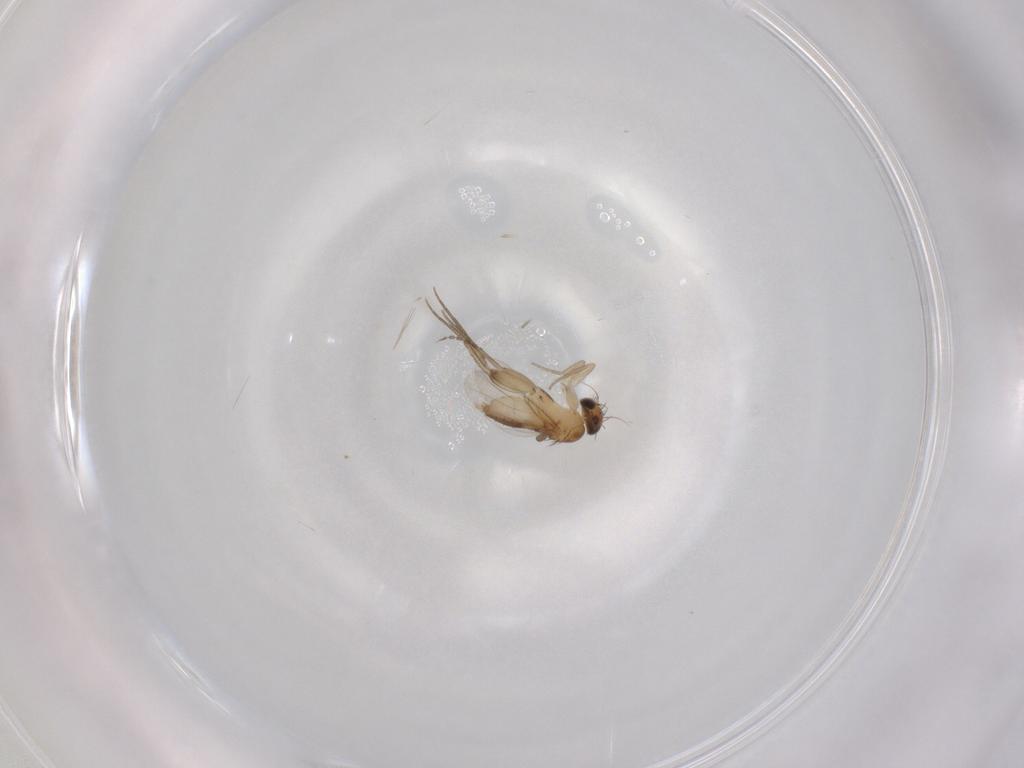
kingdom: Animalia
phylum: Arthropoda
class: Insecta
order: Diptera
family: Cecidomyiidae
